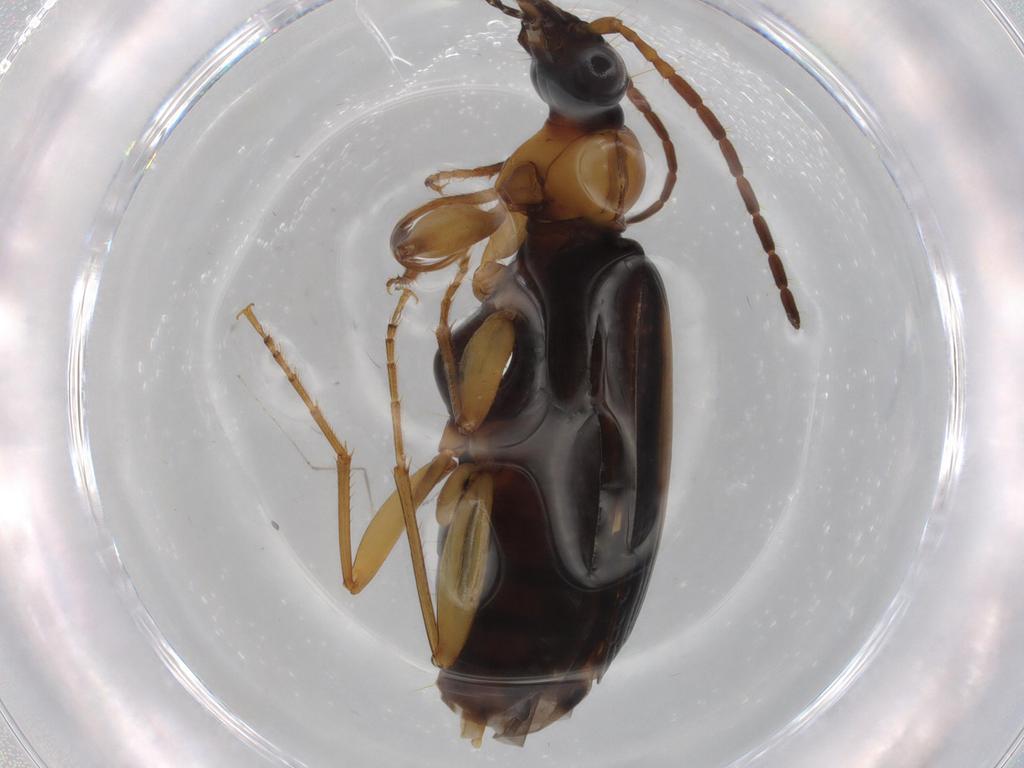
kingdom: Animalia
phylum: Arthropoda
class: Insecta
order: Coleoptera
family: Carabidae
